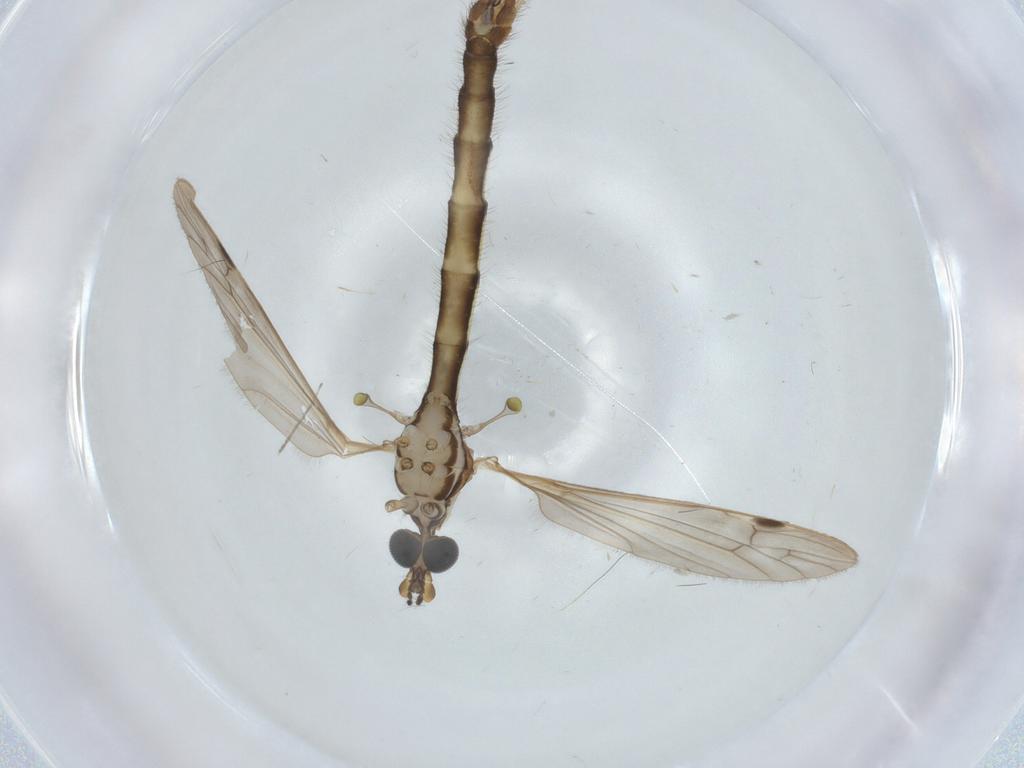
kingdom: Animalia
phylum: Arthropoda
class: Insecta
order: Diptera
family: Chironomidae
